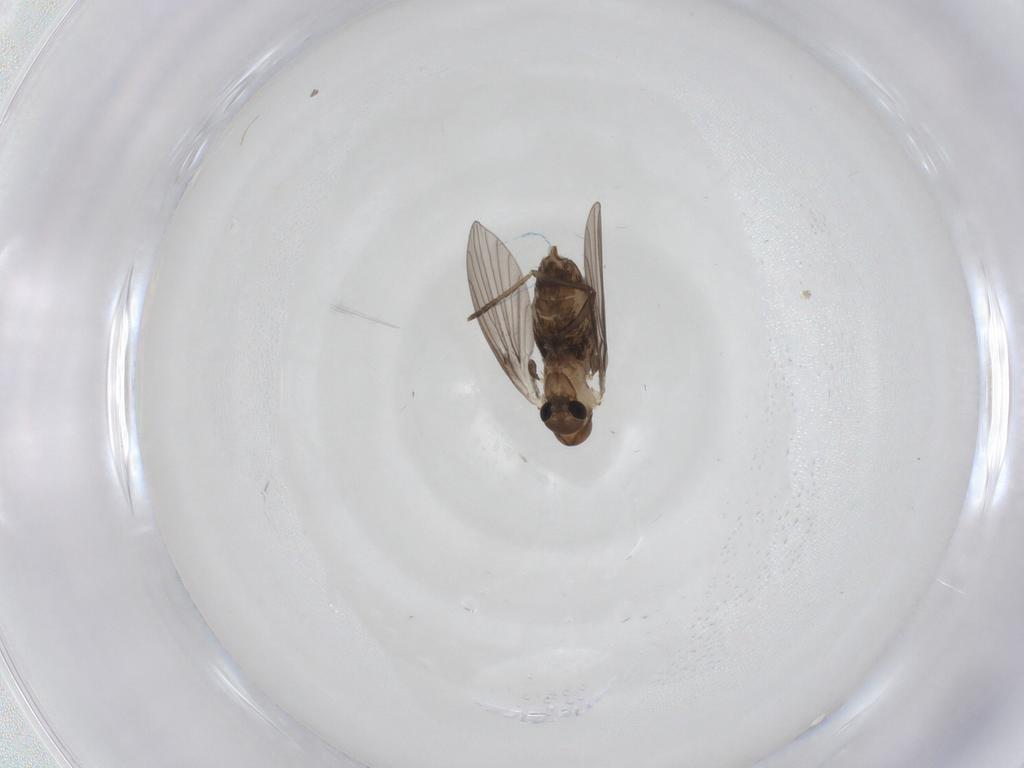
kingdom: Animalia
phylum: Arthropoda
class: Insecta
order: Diptera
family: Psychodidae
